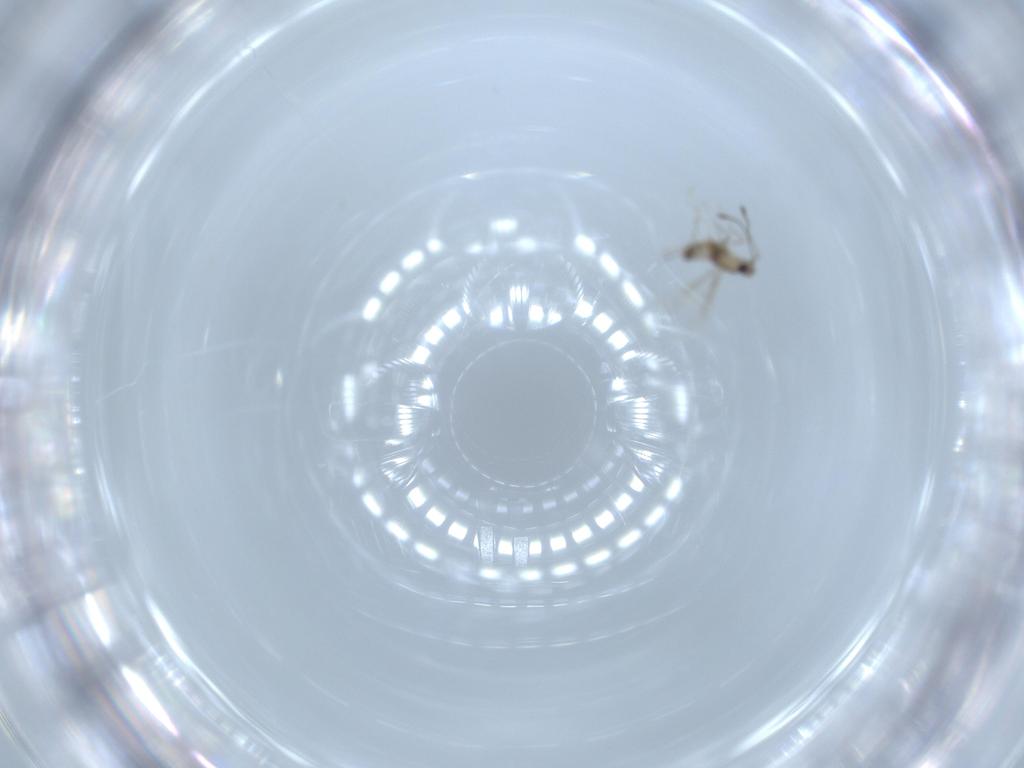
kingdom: Animalia
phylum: Arthropoda
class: Insecta
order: Hymenoptera
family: Mymaridae
